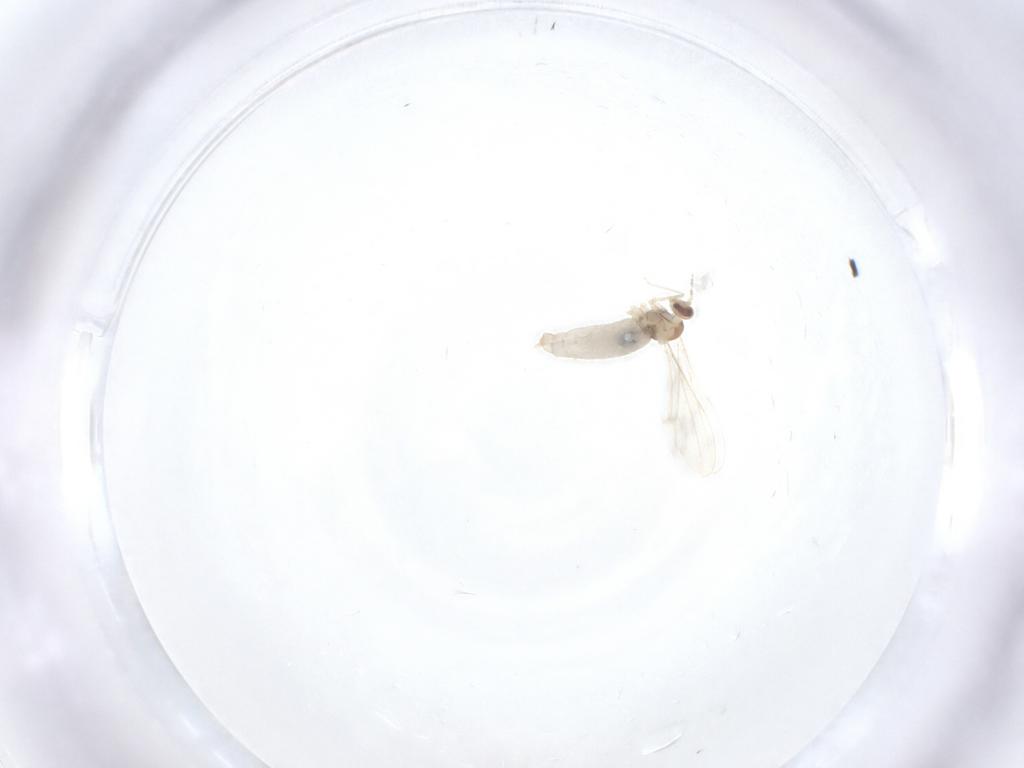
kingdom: Animalia
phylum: Arthropoda
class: Insecta
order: Diptera
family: Cecidomyiidae
